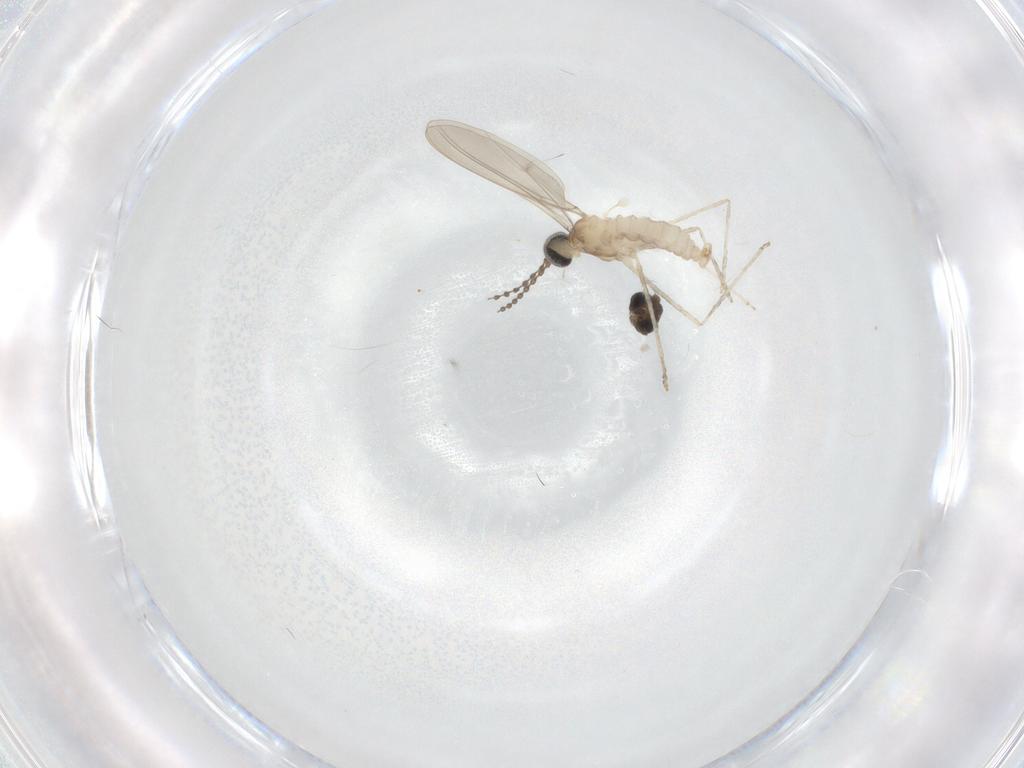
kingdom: Animalia
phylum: Arthropoda
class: Insecta
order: Diptera
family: Cecidomyiidae
